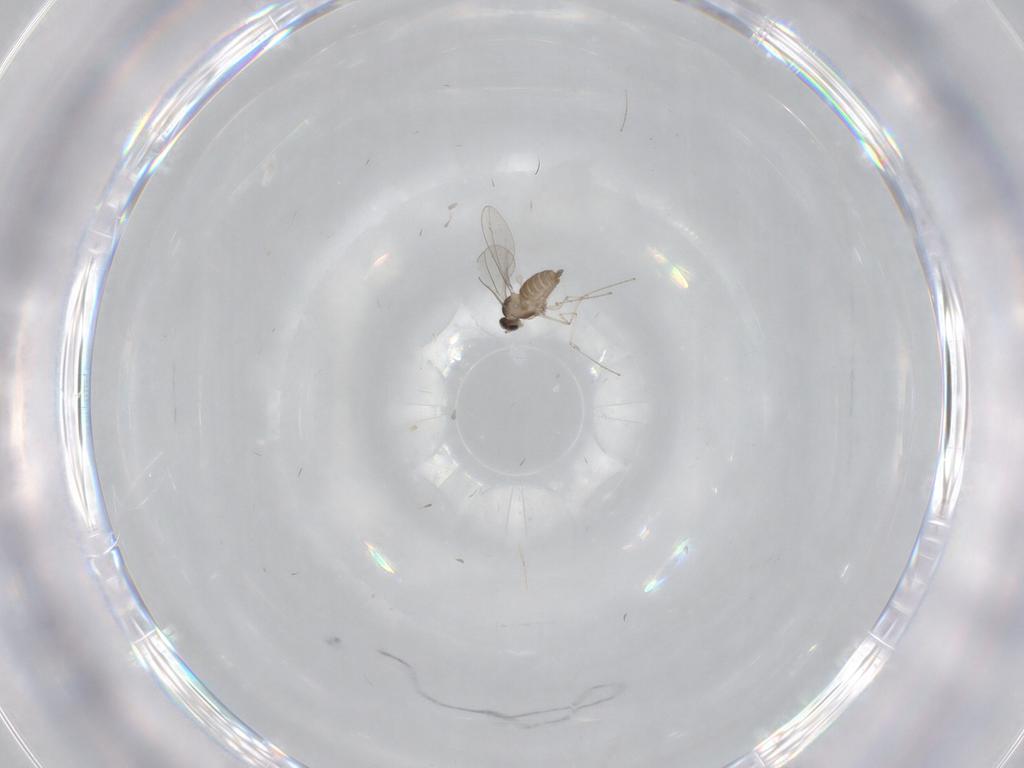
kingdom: Animalia
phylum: Arthropoda
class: Insecta
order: Diptera
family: Cecidomyiidae
